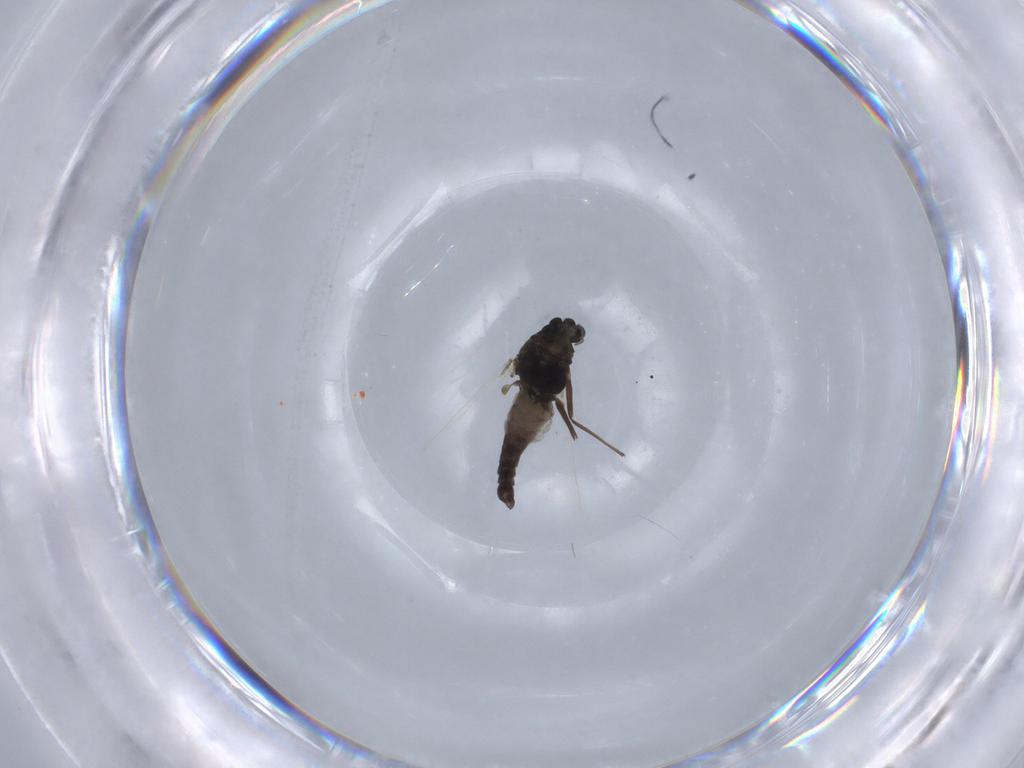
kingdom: Animalia
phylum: Arthropoda
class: Insecta
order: Diptera
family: Chironomidae
